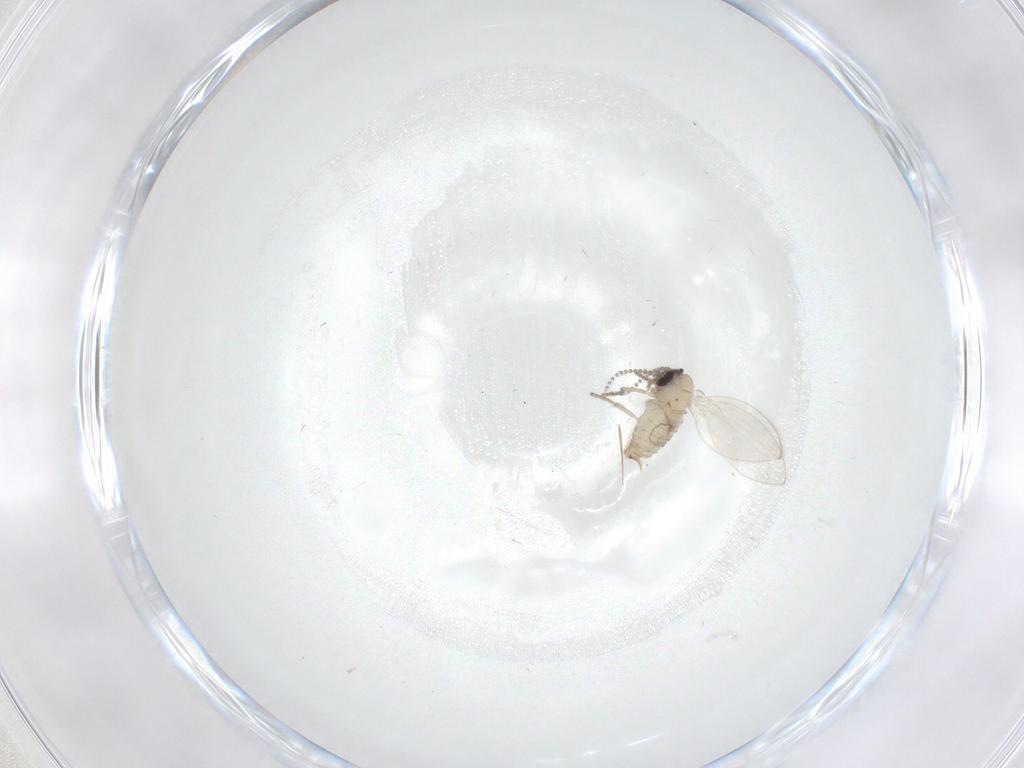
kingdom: Animalia
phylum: Arthropoda
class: Insecta
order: Diptera
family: Psychodidae
